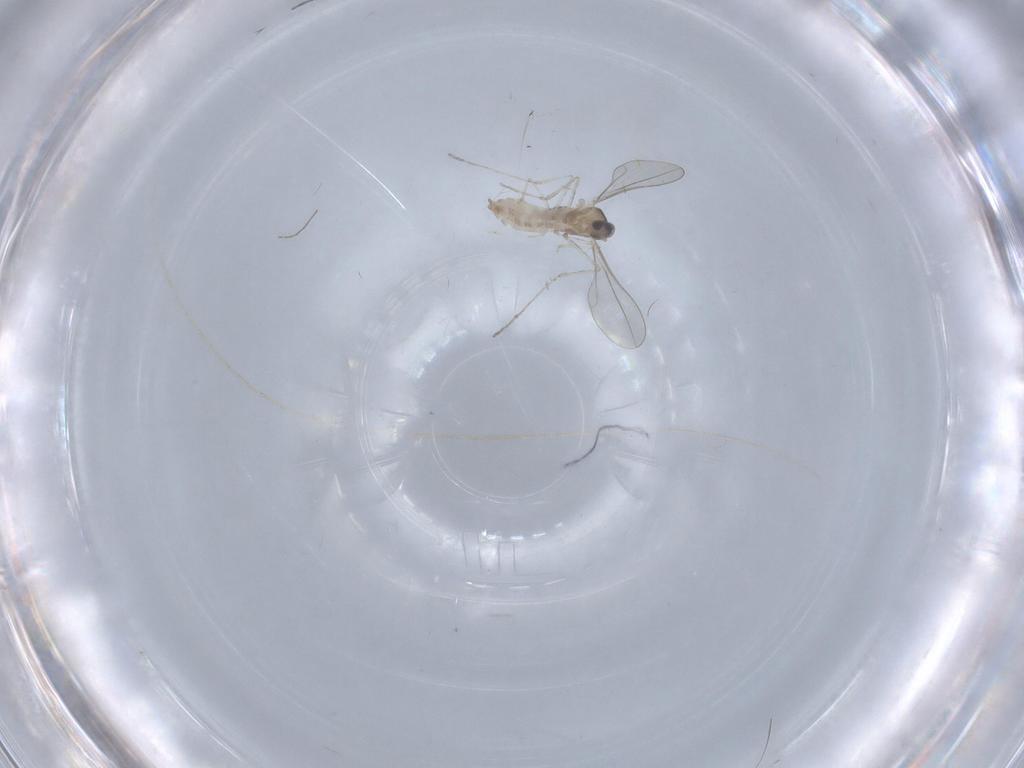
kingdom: Animalia
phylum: Arthropoda
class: Insecta
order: Diptera
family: Cecidomyiidae
